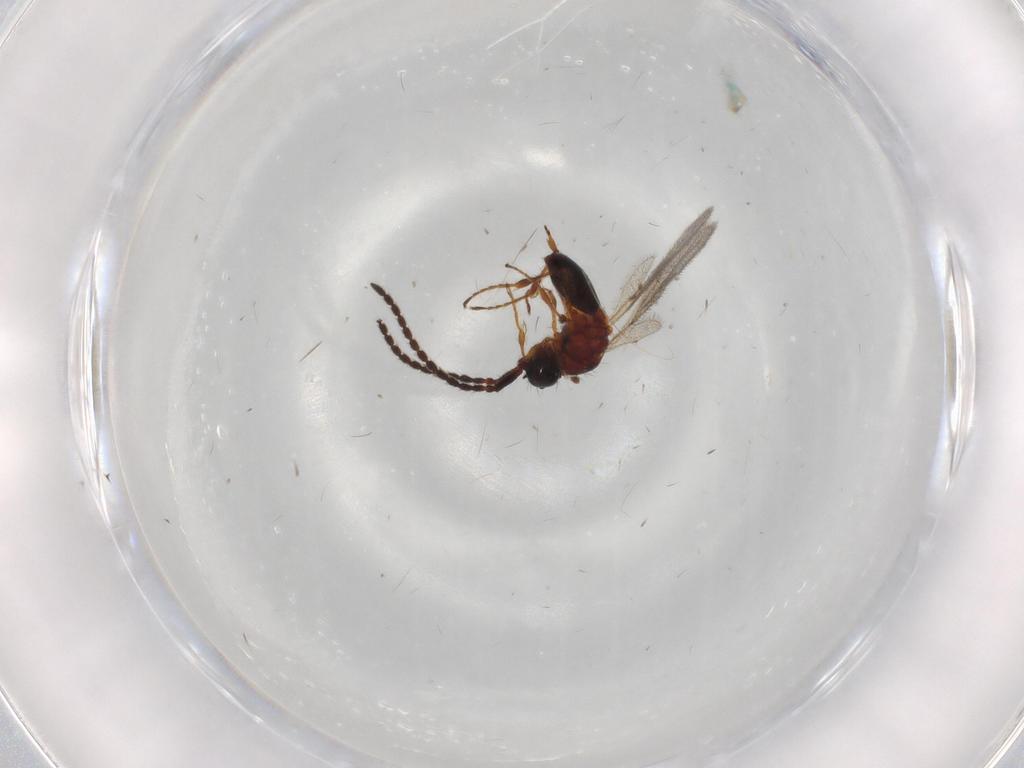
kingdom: Animalia
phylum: Arthropoda
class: Insecta
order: Hymenoptera
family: Diapriidae
